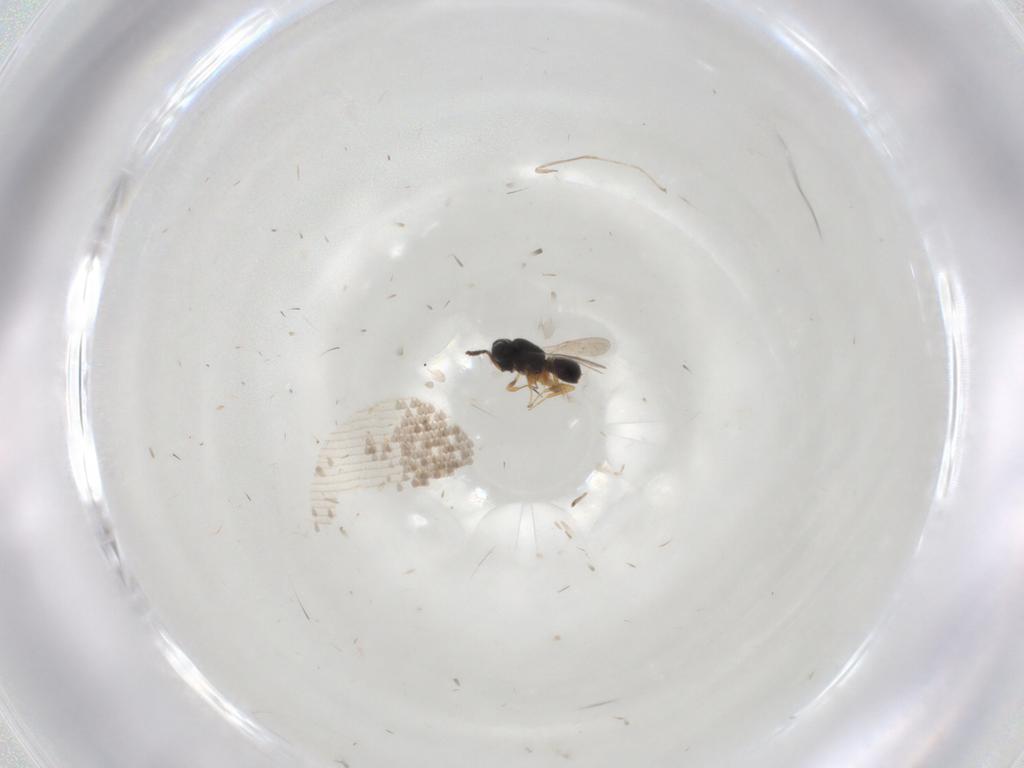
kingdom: Animalia
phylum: Arthropoda
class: Insecta
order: Hymenoptera
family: Scelionidae
